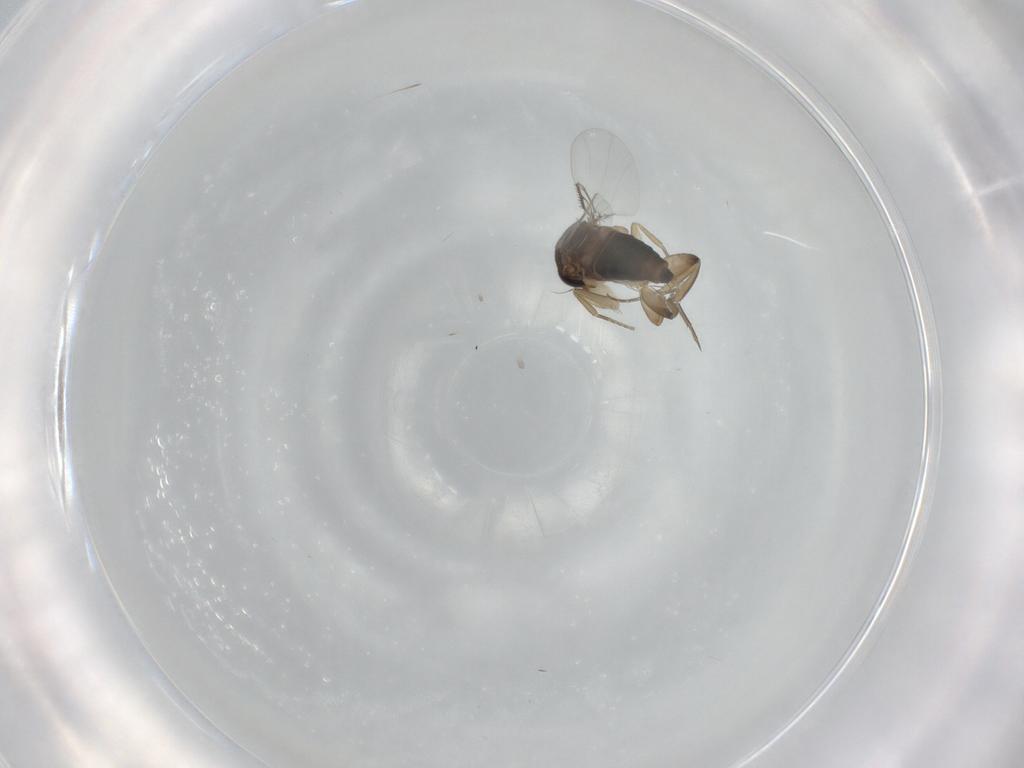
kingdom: Animalia
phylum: Arthropoda
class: Insecta
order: Diptera
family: Phoridae
